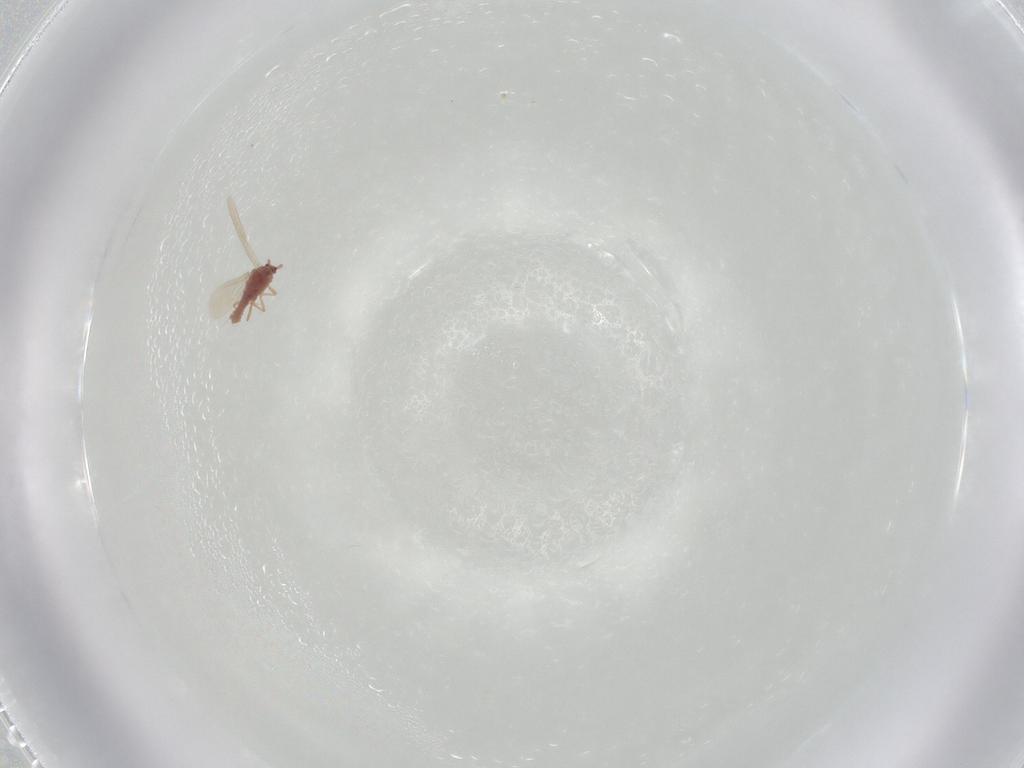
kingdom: Animalia
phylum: Arthropoda
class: Insecta
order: Hemiptera
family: Pseudococcidae
